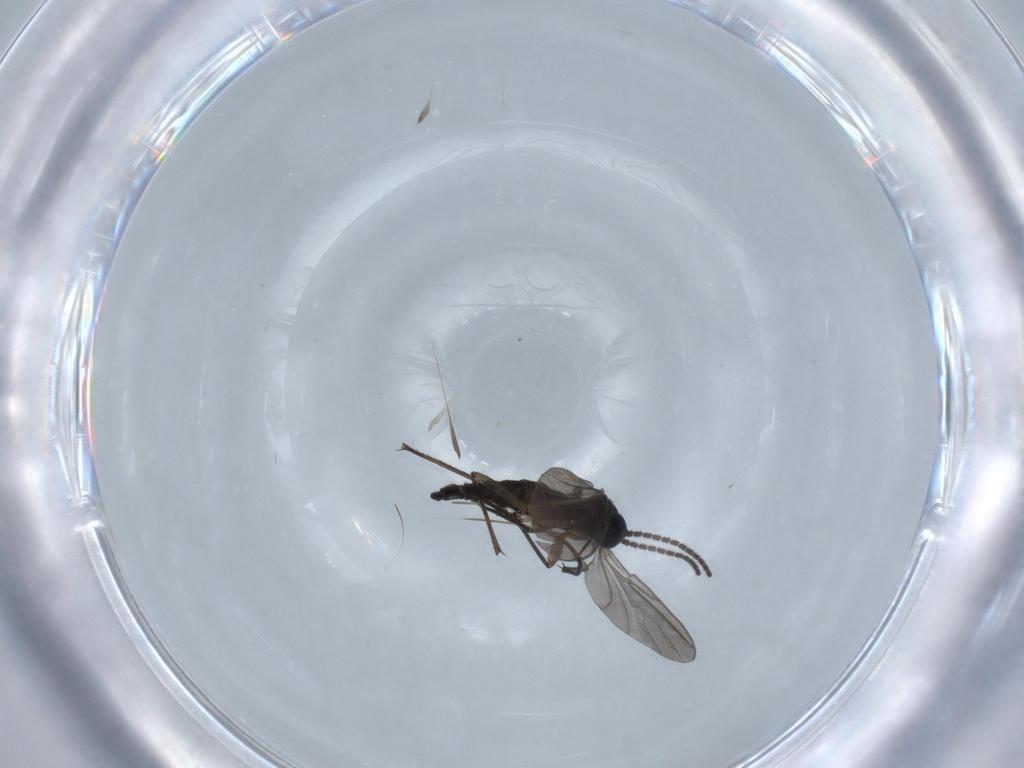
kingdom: Animalia
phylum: Arthropoda
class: Insecta
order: Diptera
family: Sciaridae
